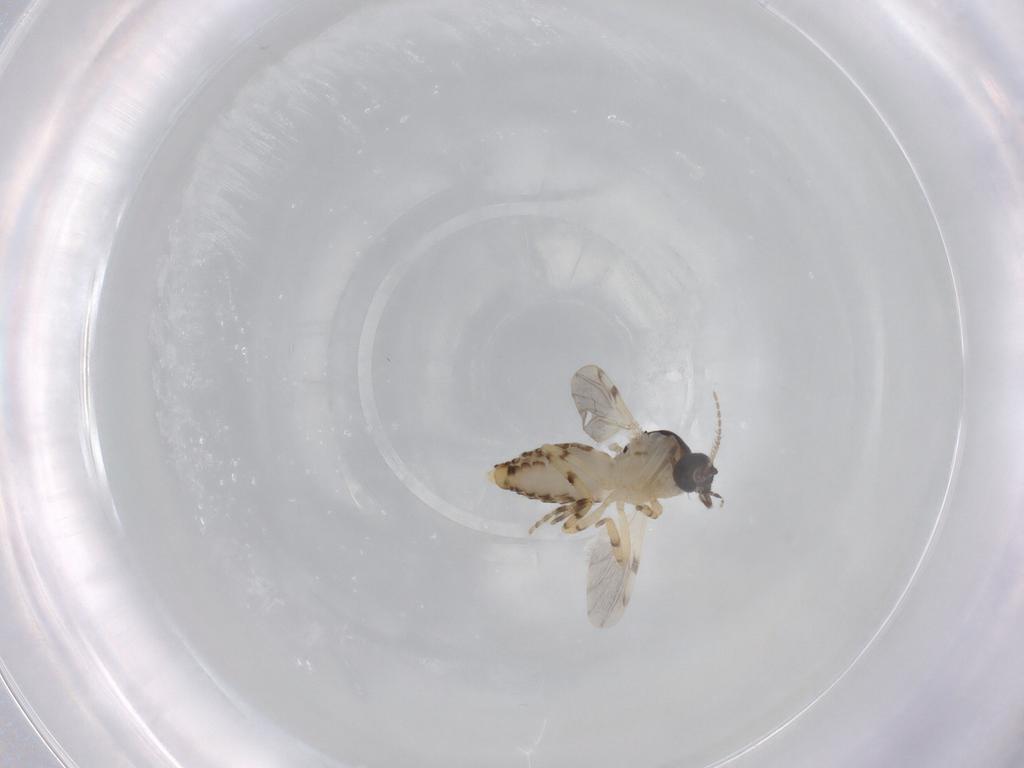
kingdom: Animalia
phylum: Arthropoda
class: Insecta
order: Diptera
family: Ceratopogonidae
